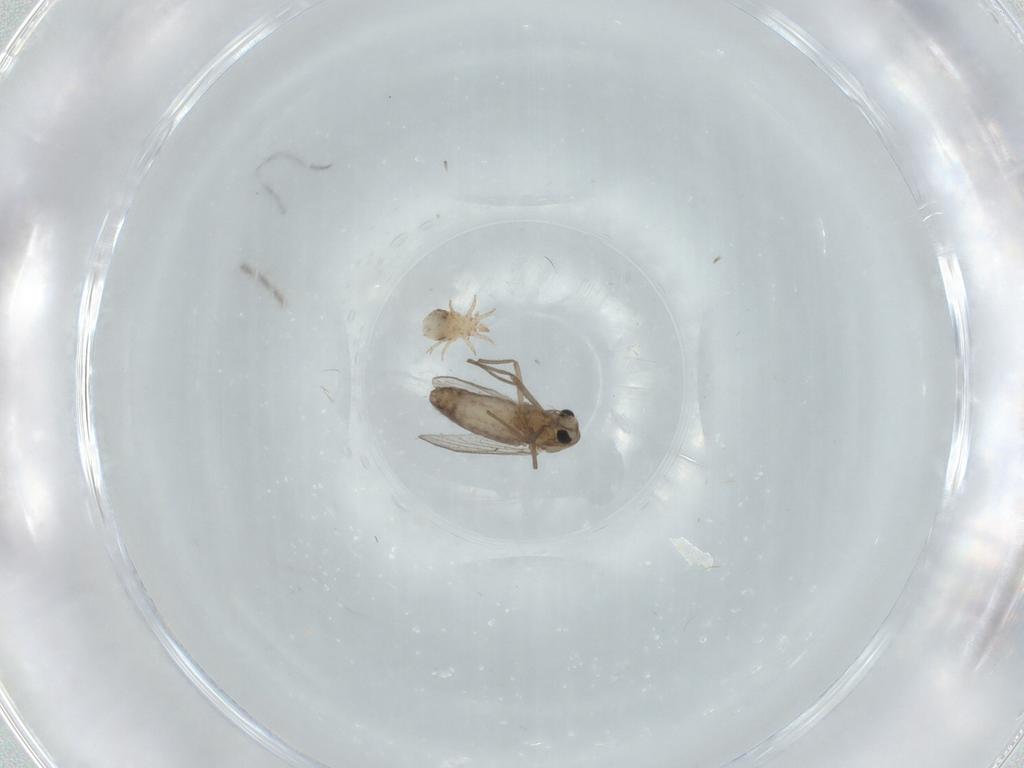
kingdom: Animalia
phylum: Arthropoda
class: Insecta
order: Diptera
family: Chironomidae
